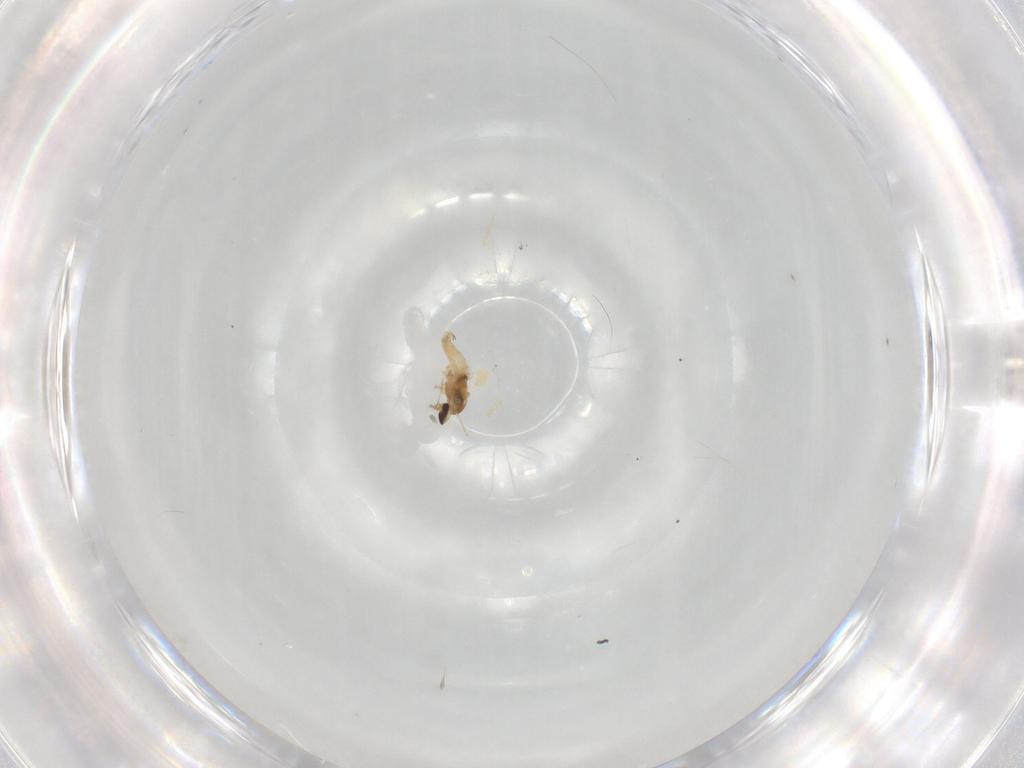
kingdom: Animalia
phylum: Arthropoda
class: Insecta
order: Diptera
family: Cecidomyiidae
